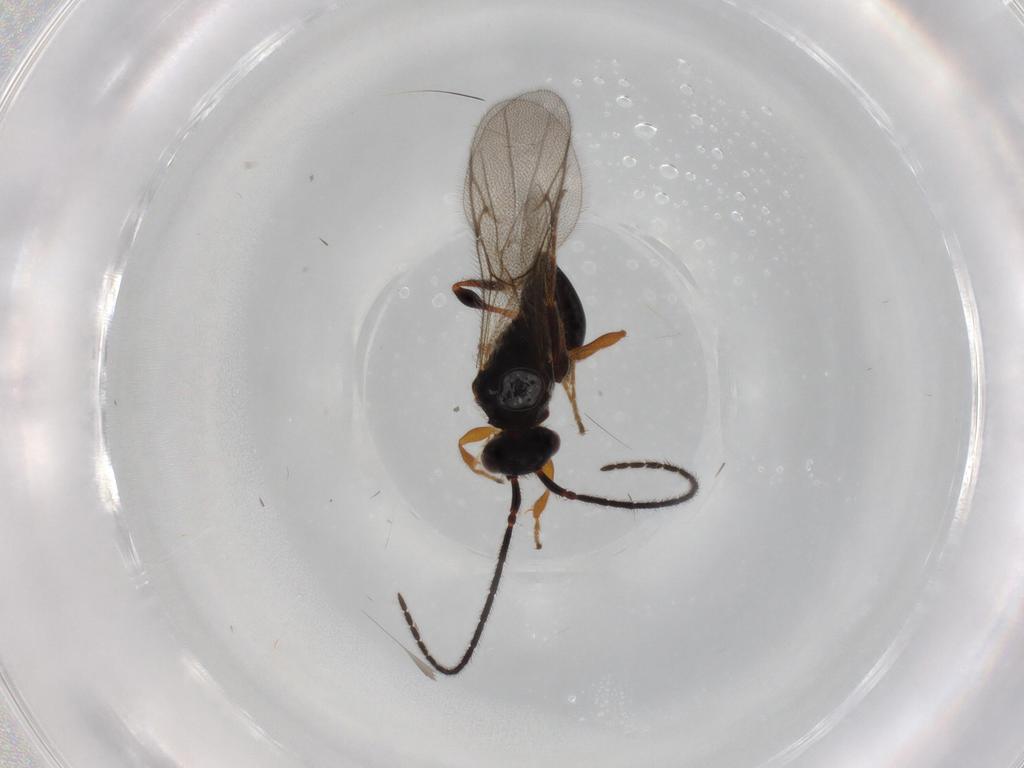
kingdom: Animalia
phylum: Arthropoda
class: Insecta
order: Hymenoptera
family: Diapriidae
